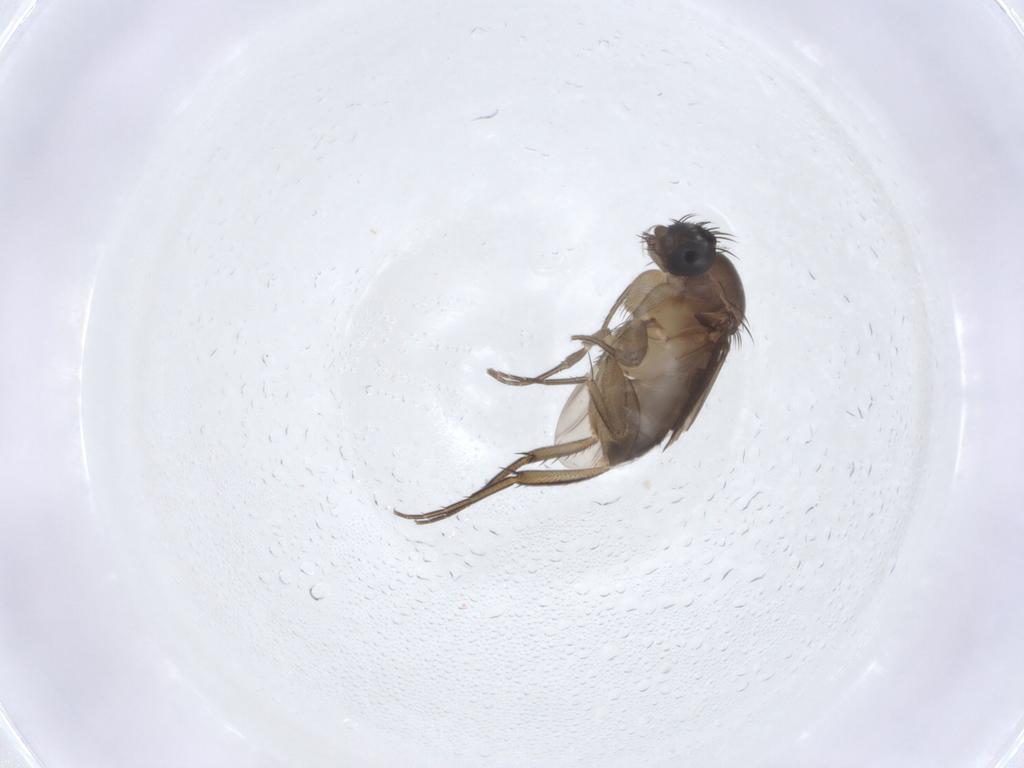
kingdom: Animalia
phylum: Arthropoda
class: Insecta
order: Diptera
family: Phoridae
